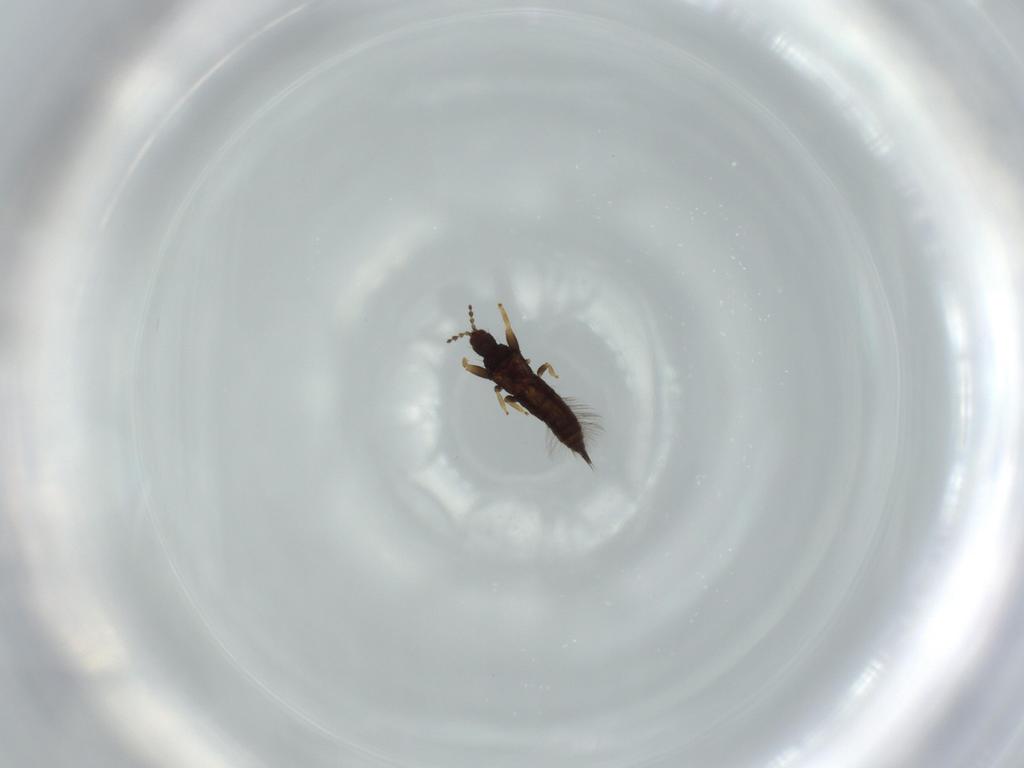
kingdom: Animalia
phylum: Arthropoda
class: Insecta
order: Thysanoptera
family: Phlaeothripidae
